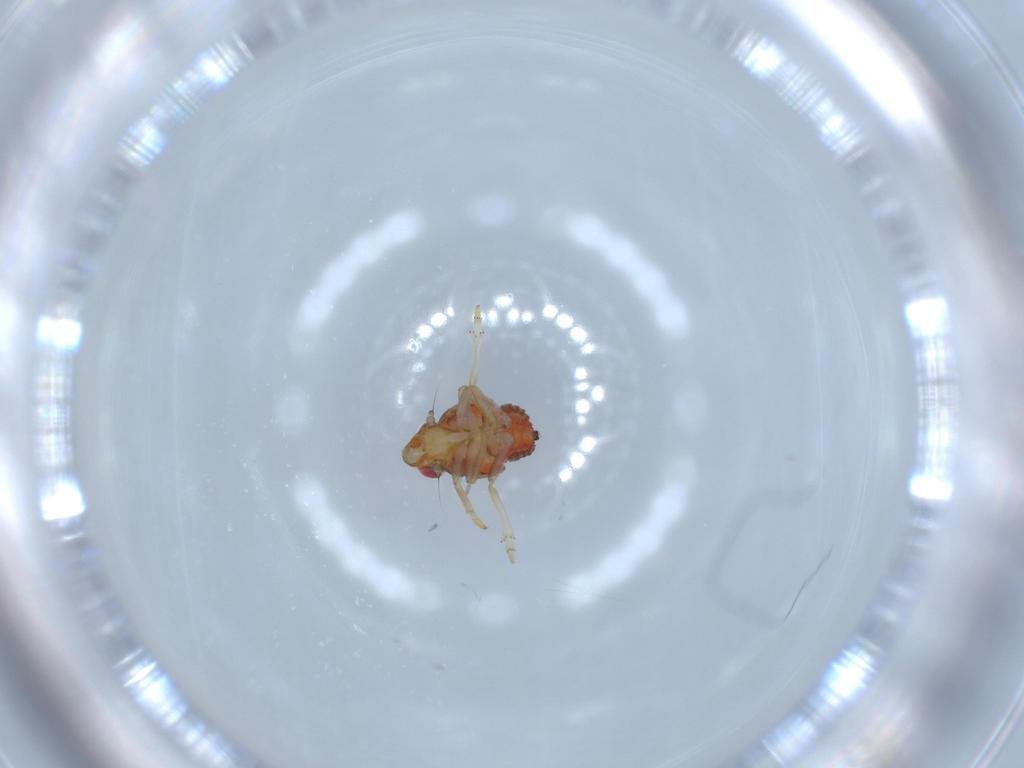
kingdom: Animalia
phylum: Arthropoda
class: Insecta
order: Hemiptera
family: Issidae
